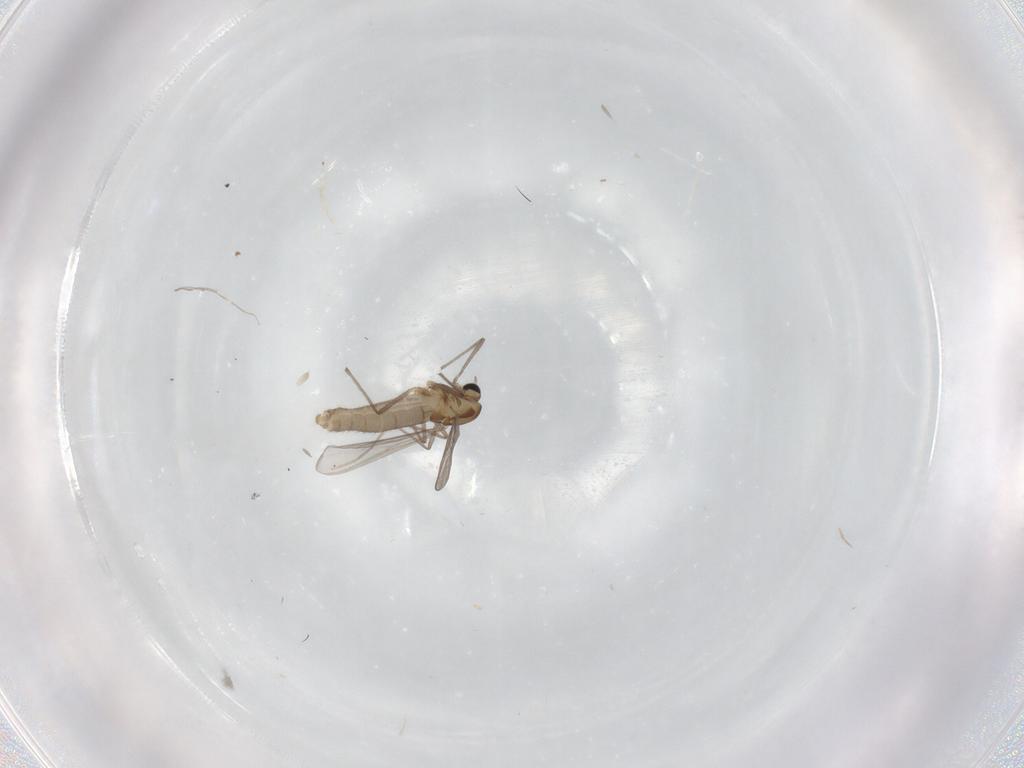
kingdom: Animalia
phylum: Arthropoda
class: Insecta
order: Diptera
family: Chironomidae
